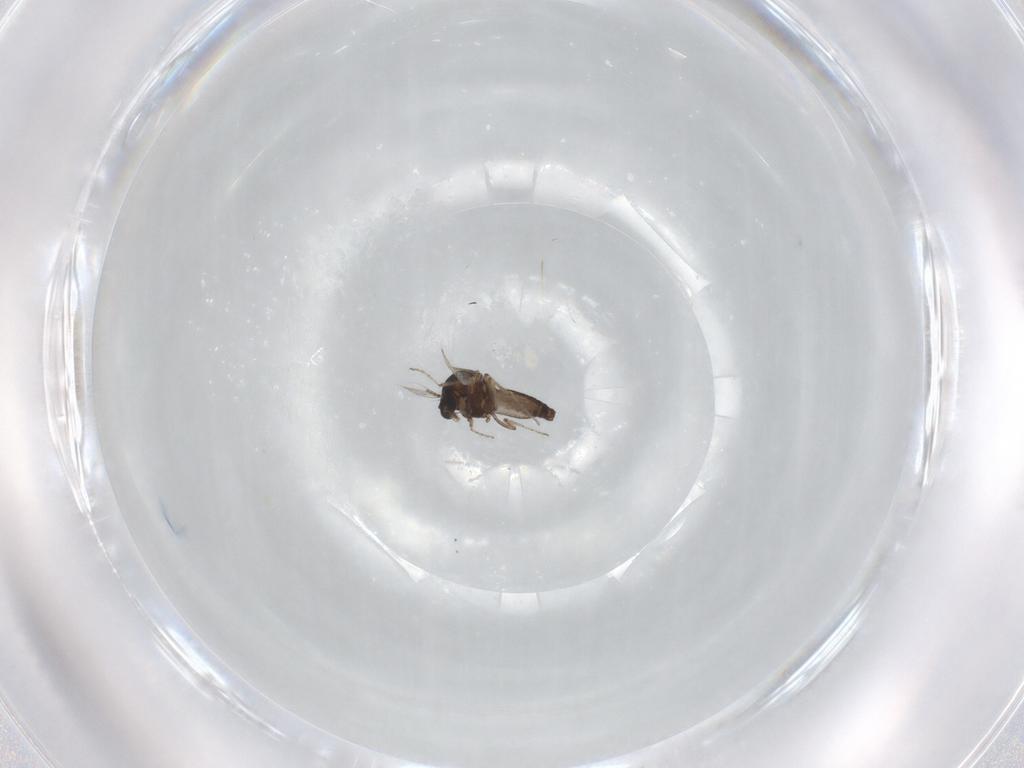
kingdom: Animalia
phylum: Arthropoda
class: Insecta
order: Diptera
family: Ceratopogonidae
